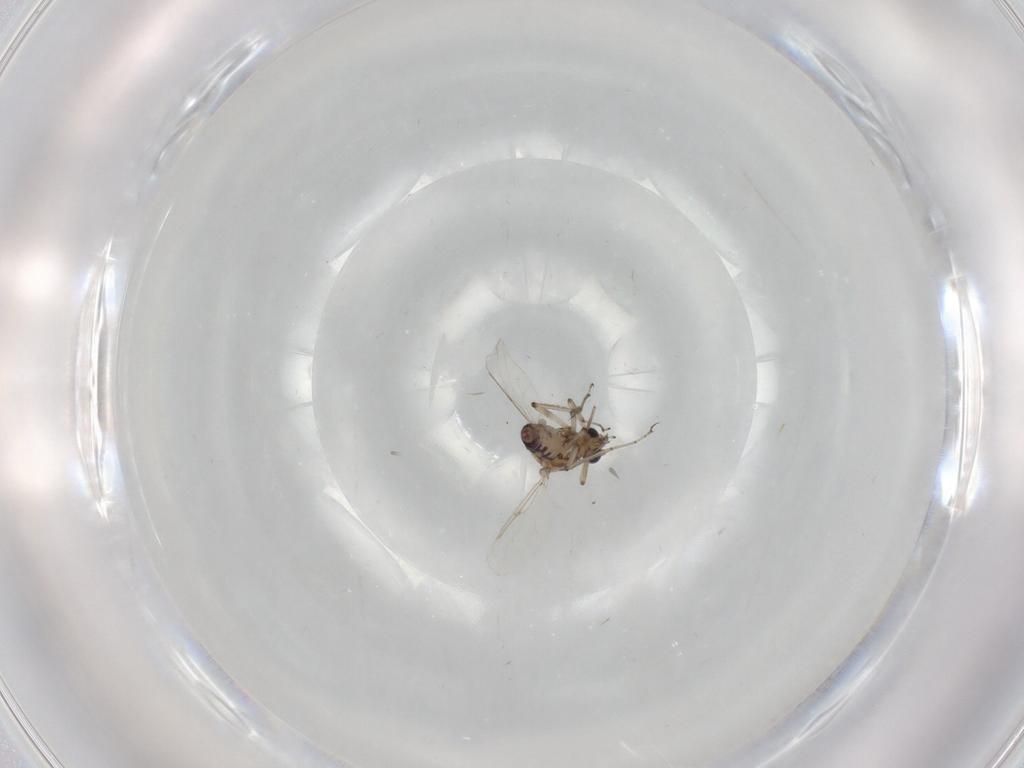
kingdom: Animalia
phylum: Arthropoda
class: Insecta
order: Diptera
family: Ceratopogonidae
